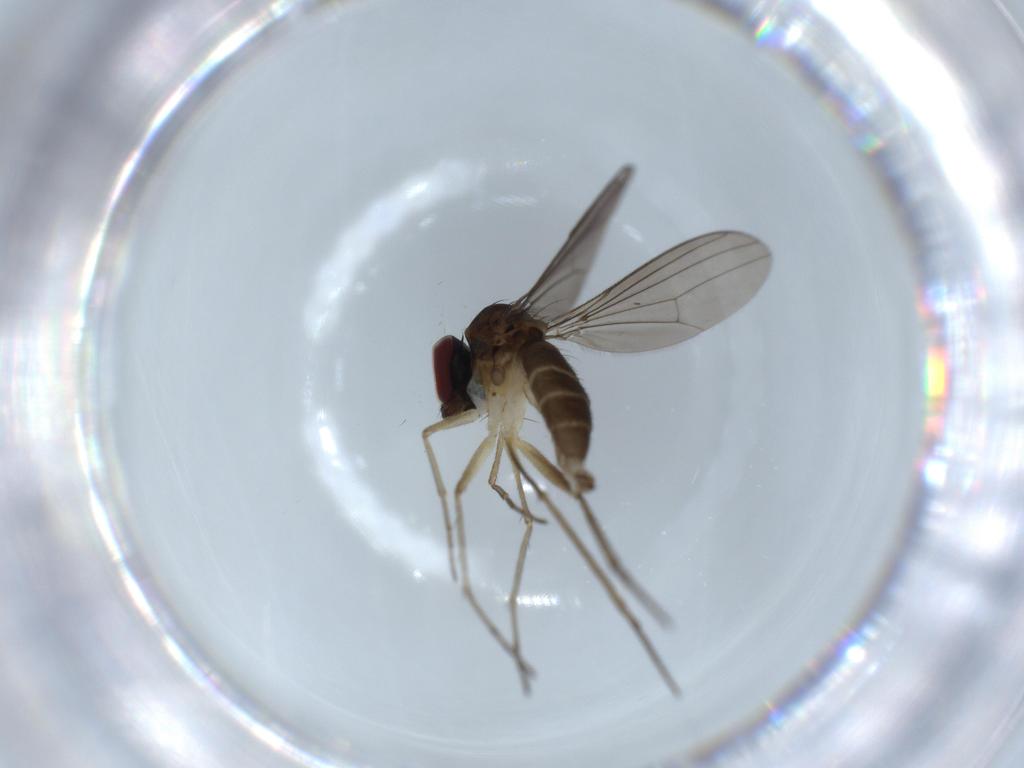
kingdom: Animalia
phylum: Arthropoda
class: Insecta
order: Diptera
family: Dolichopodidae
